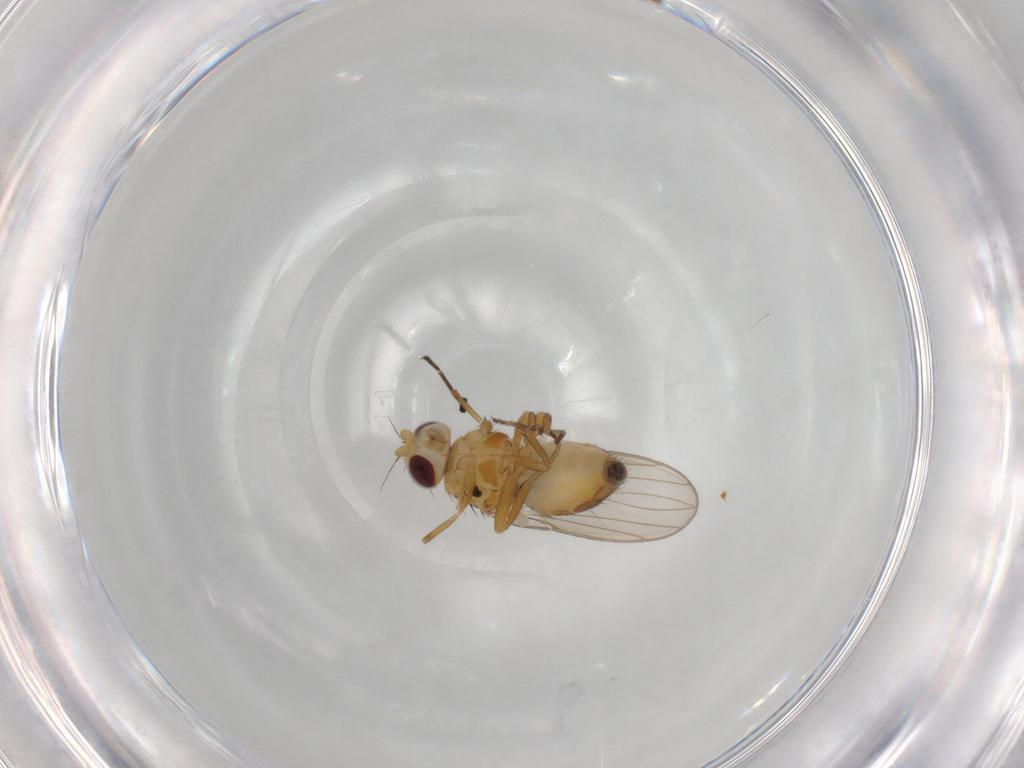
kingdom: Animalia
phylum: Arthropoda
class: Insecta
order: Diptera
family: Chloropidae
